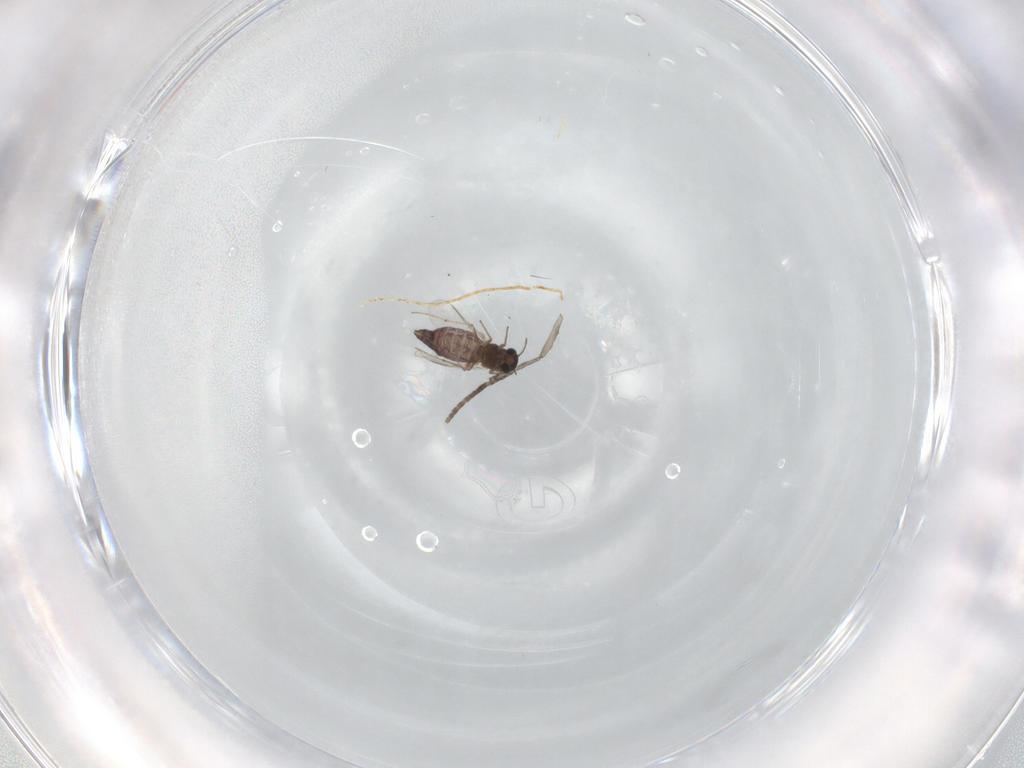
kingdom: Animalia
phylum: Arthropoda
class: Insecta
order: Diptera
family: Chironomidae
